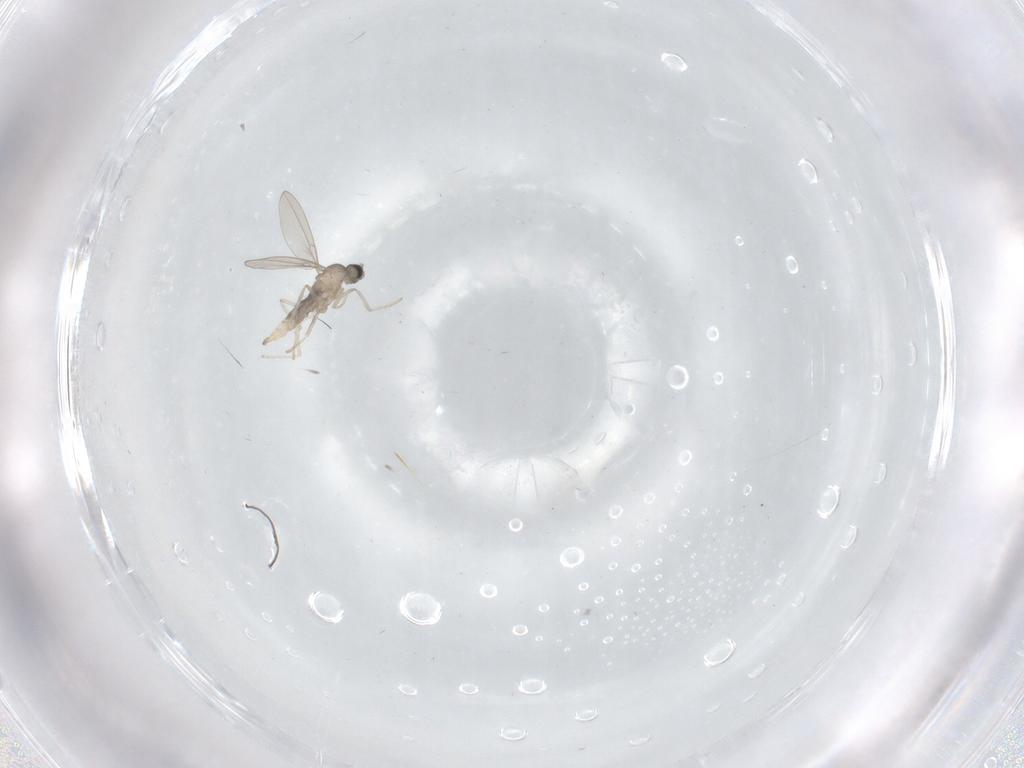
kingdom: Animalia
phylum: Arthropoda
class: Insecta
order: Diptera
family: Cecidomyiidae
